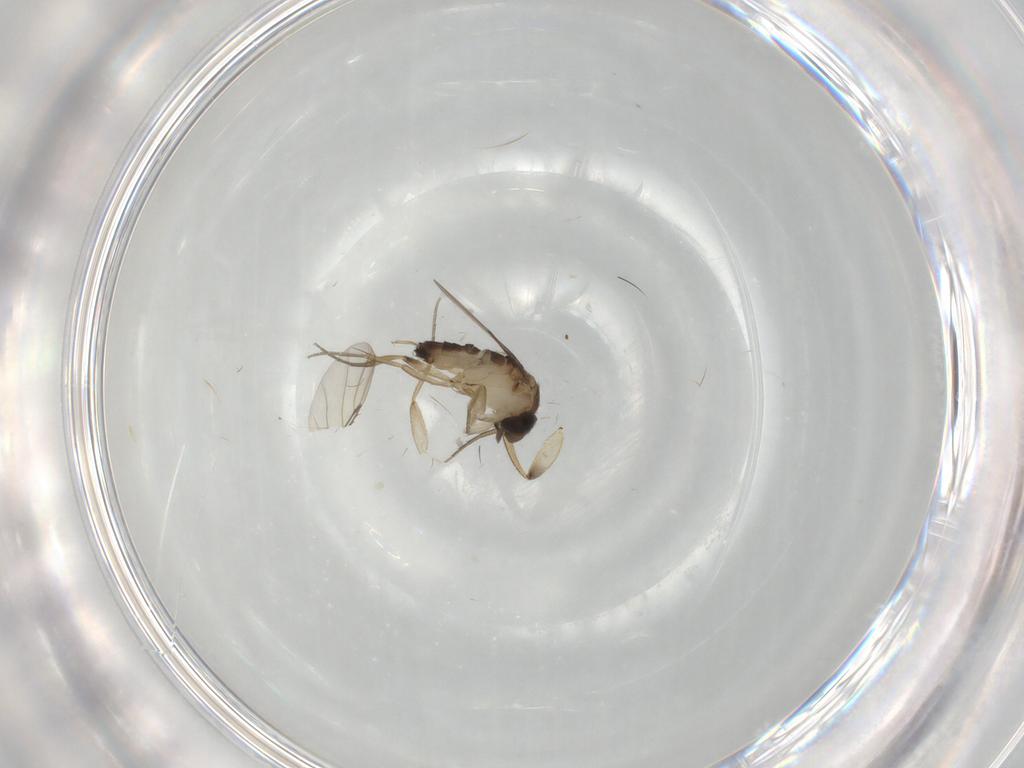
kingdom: Animalia
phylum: Arthropoda
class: Insecta
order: Diptera
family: Phoridae
